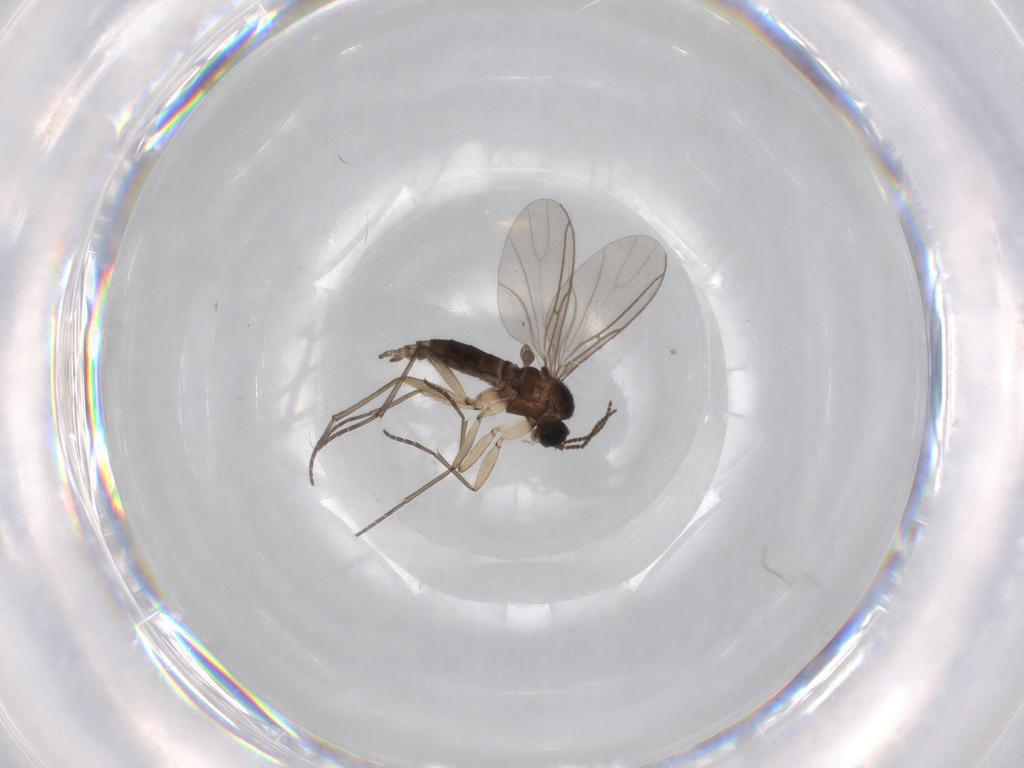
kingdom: Animalia
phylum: Arthropoda
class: Insecta
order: Diptera
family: Sciaridae
